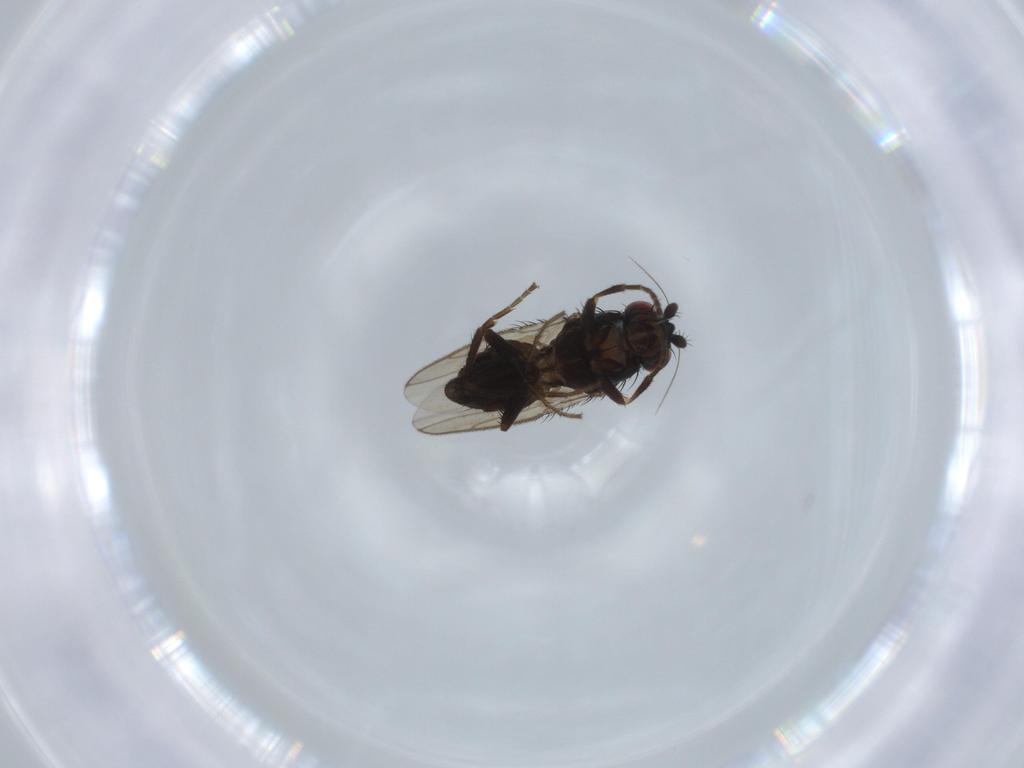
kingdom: Animalia
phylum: Arthropoda
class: Insecta
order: Diptera
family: Sphaeroceridae
